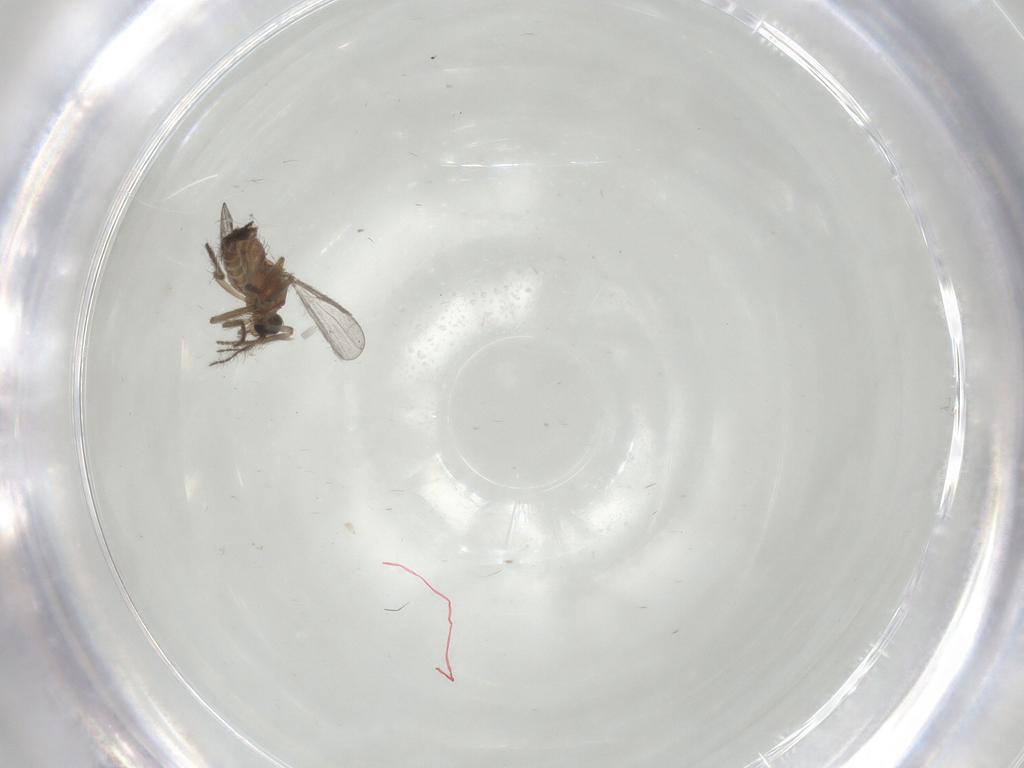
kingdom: Animalia
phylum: Arthropoda
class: Insecta
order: Diptera
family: Ceratopogonidae
